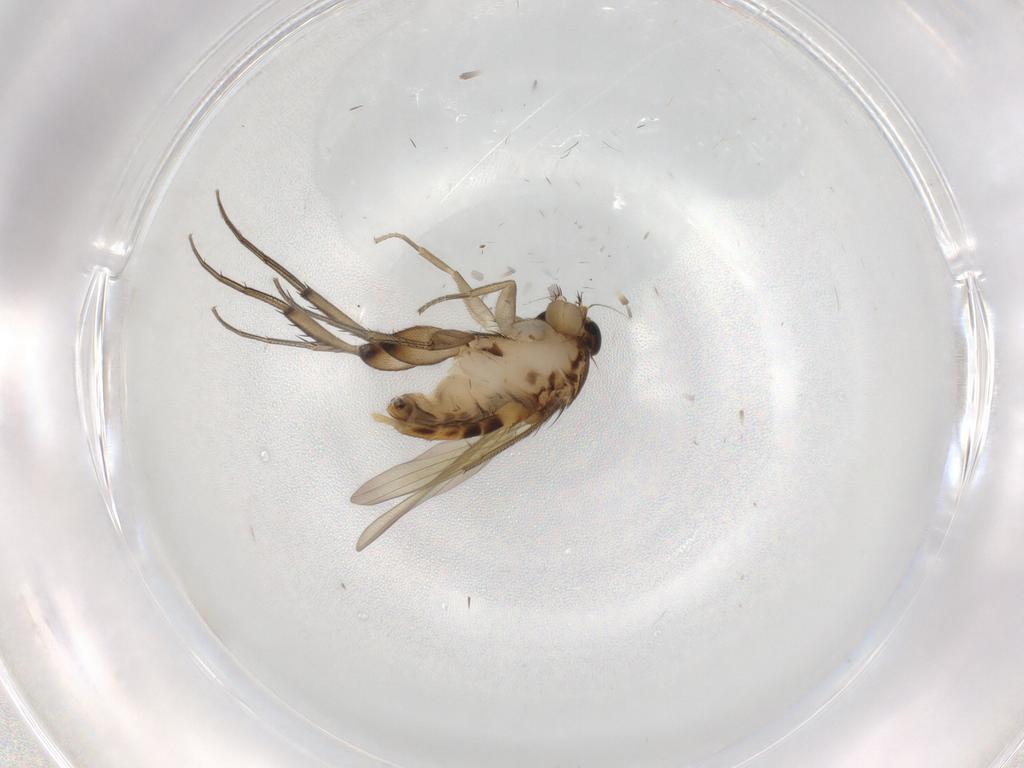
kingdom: Animalia
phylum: Arthropoda
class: Insecta
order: Diptera
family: Phoridae
